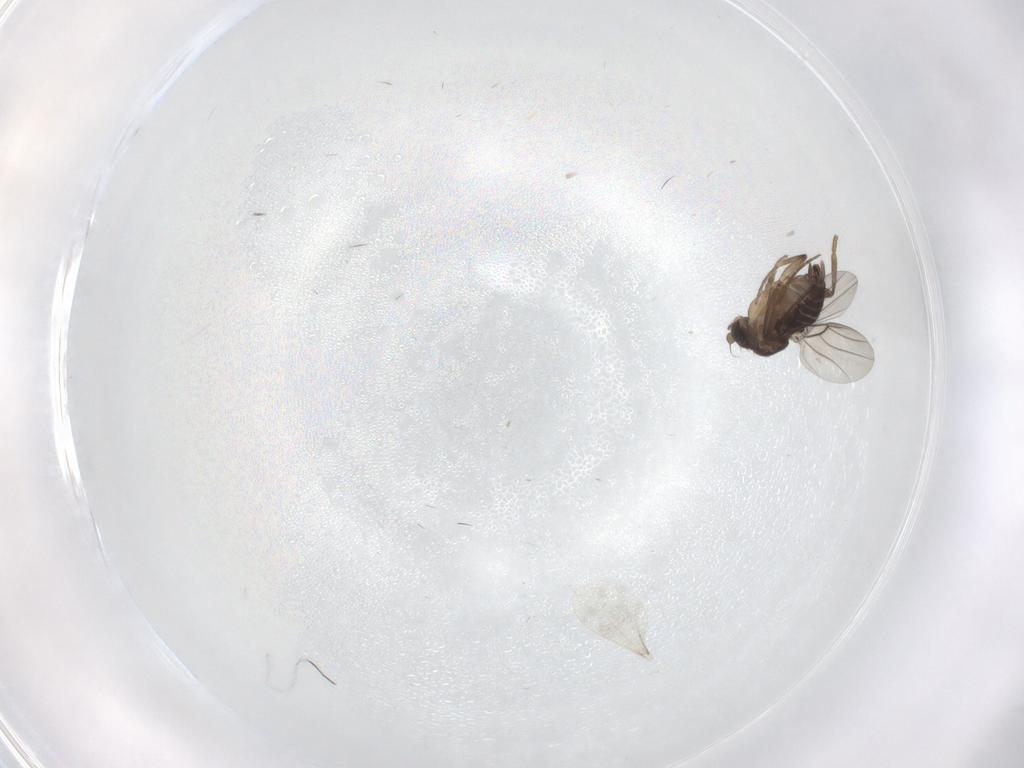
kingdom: Animalia
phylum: Arthropoda
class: Insecta
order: Diptera
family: Phoridae
